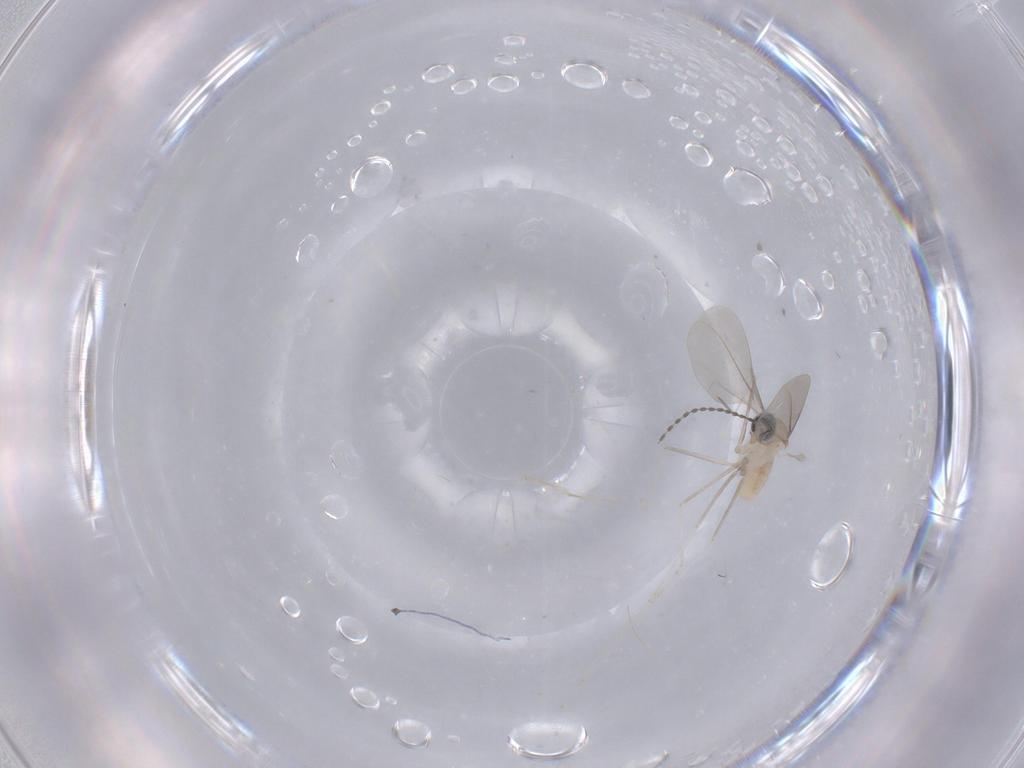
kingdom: Animalia
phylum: Arthropoda
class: Insecta
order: Diptera
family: Cecidomyiidae
